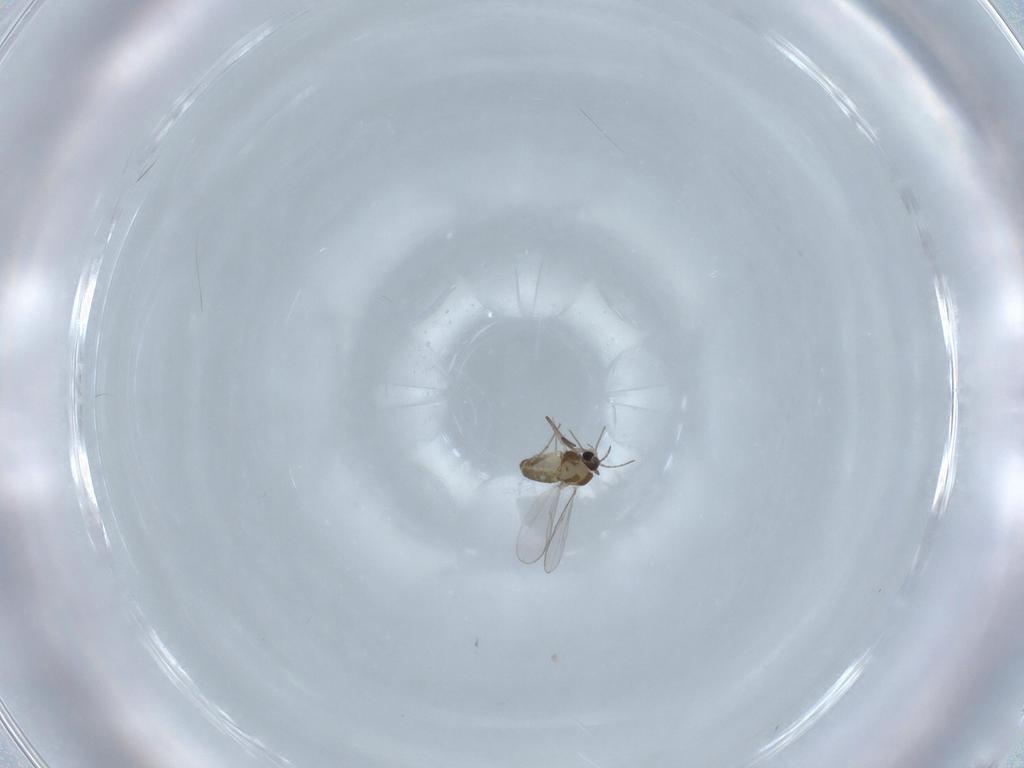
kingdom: Animalia
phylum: Arthropoda
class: Insecta
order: Diptera
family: Chironomidae
